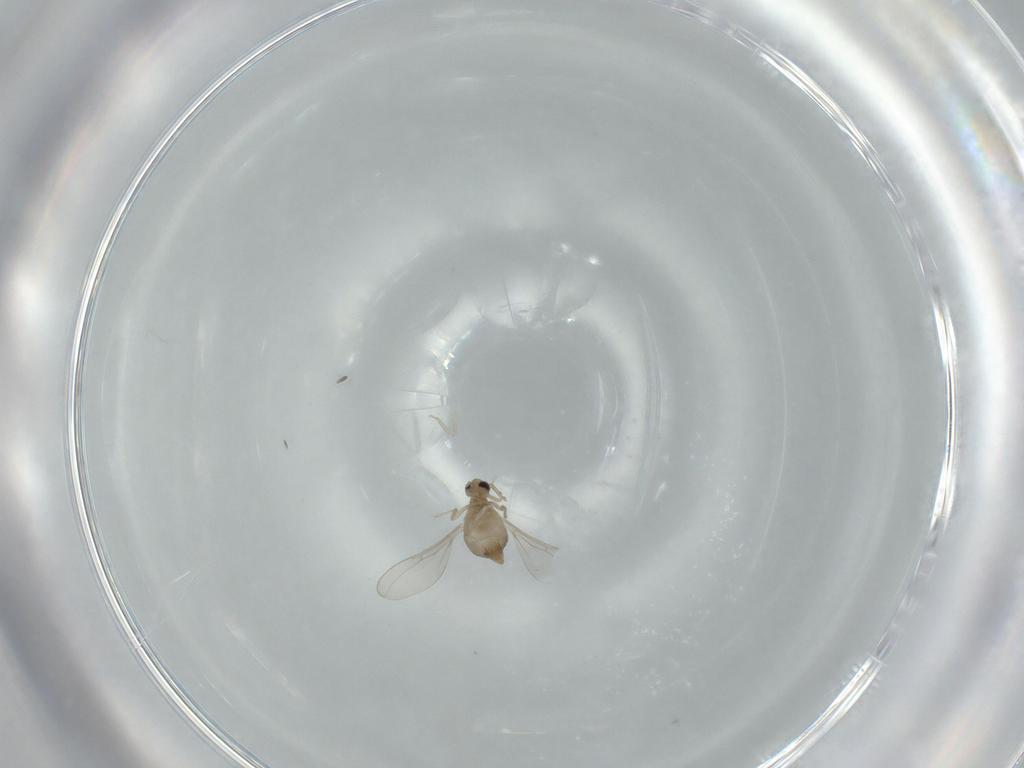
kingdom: Animalia
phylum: Arthropoda
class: Insecta
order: Diptera
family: Cecidomyiidae
